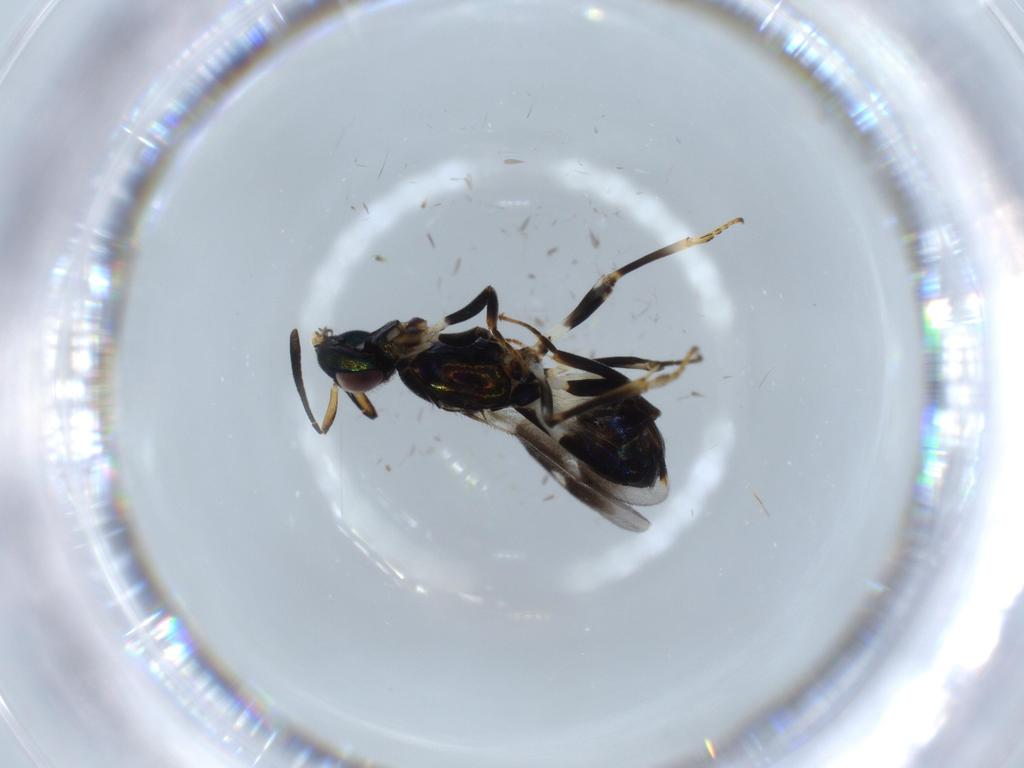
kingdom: Animalia
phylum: Arthropoda
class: Insecta
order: Hymenoptera
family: Eupelmidae
